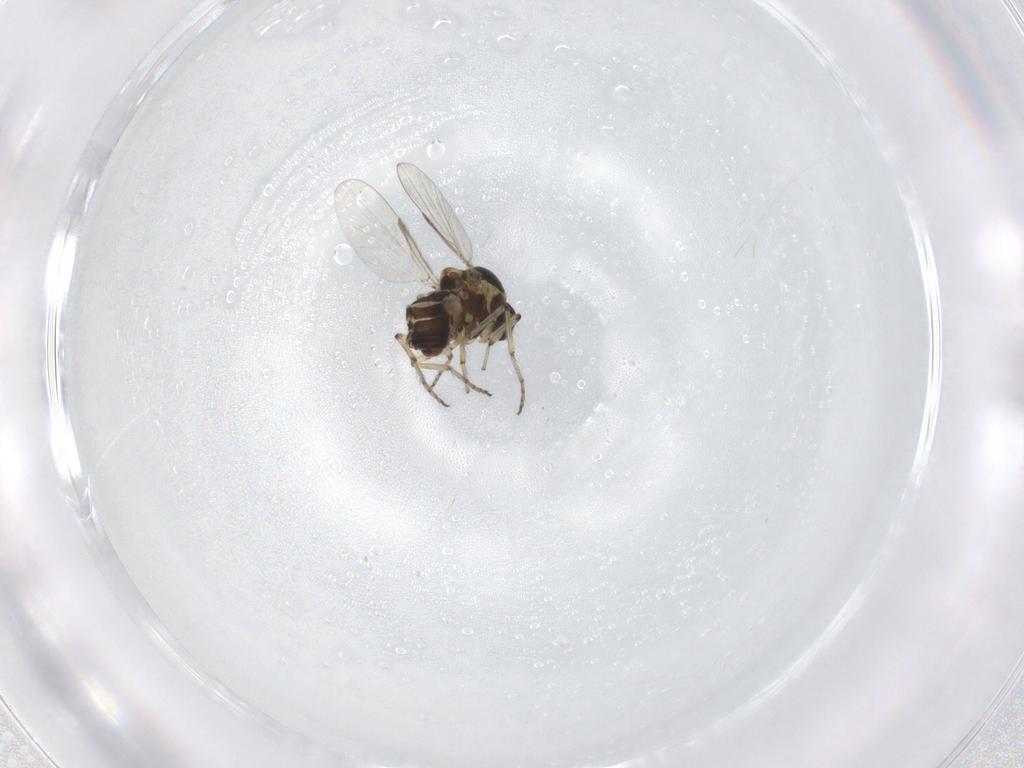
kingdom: Animalia
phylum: Arthropoda
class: Insecta
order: Diptera
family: Ceratopogonidae
